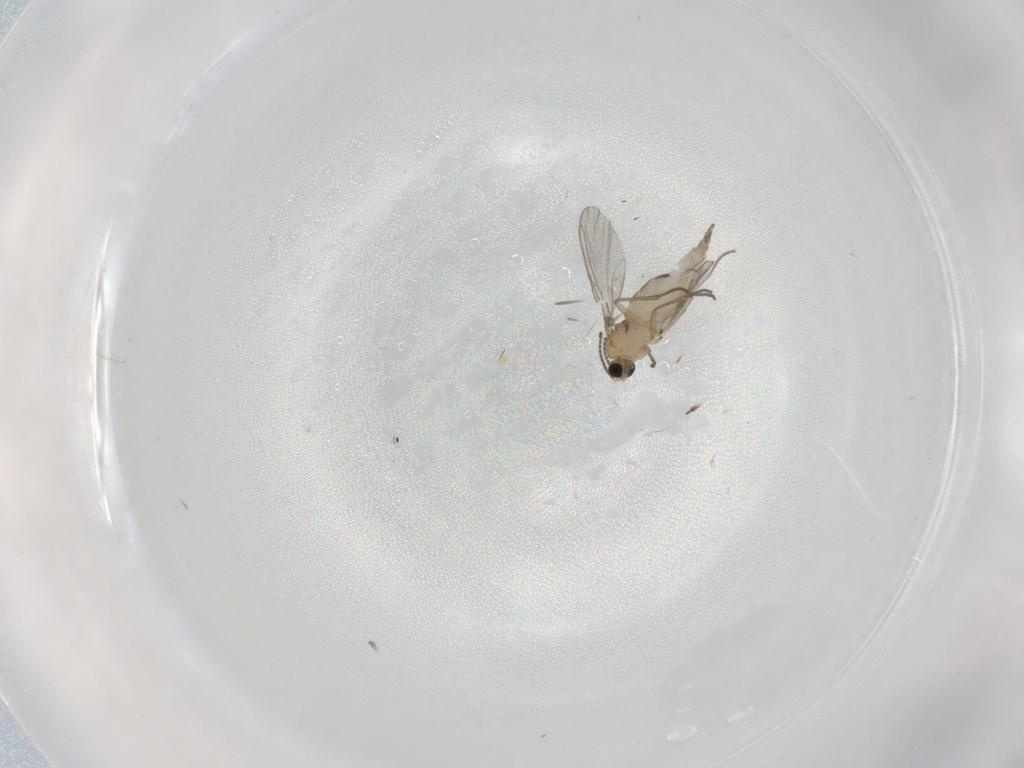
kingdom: Animalia
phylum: Arthropoda
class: Insecta
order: Diptera
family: Sciaridae
